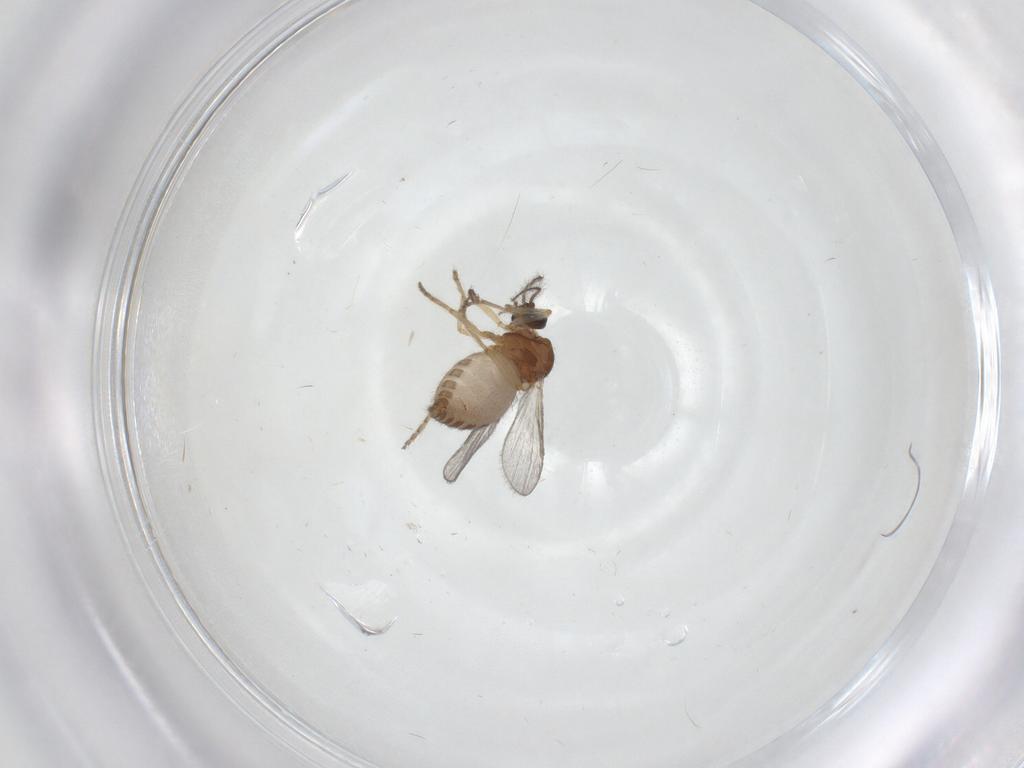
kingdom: Animalia
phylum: Arthropoda
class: Insecta
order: Diptera
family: Ceratopogonidae
